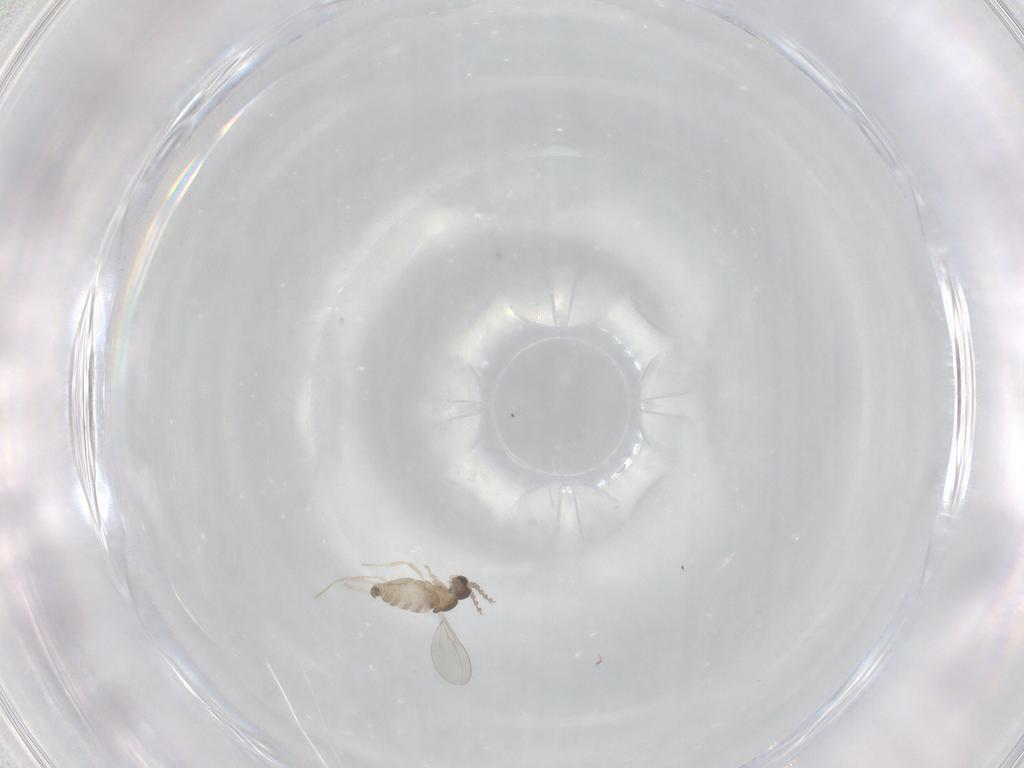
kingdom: Animalia
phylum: Arthropoda
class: Insecta
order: Diptera
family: Cecidomyiidae
